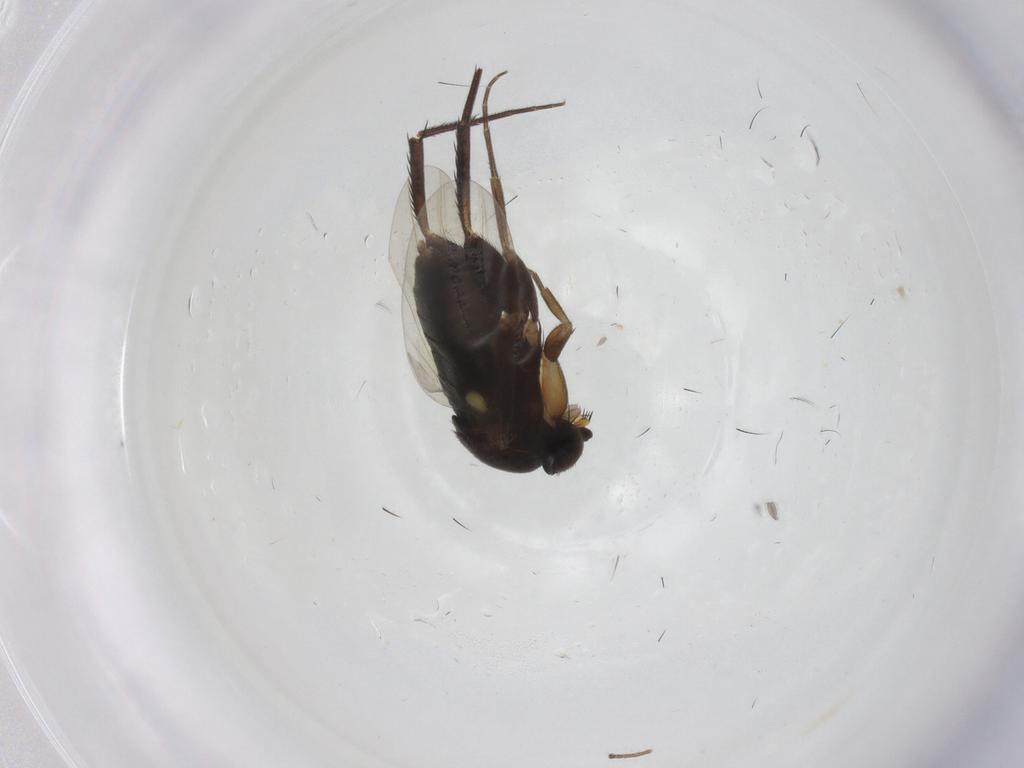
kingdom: Animalia
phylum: Arthropoda
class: Insecta
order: Diptera
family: Phoridae
